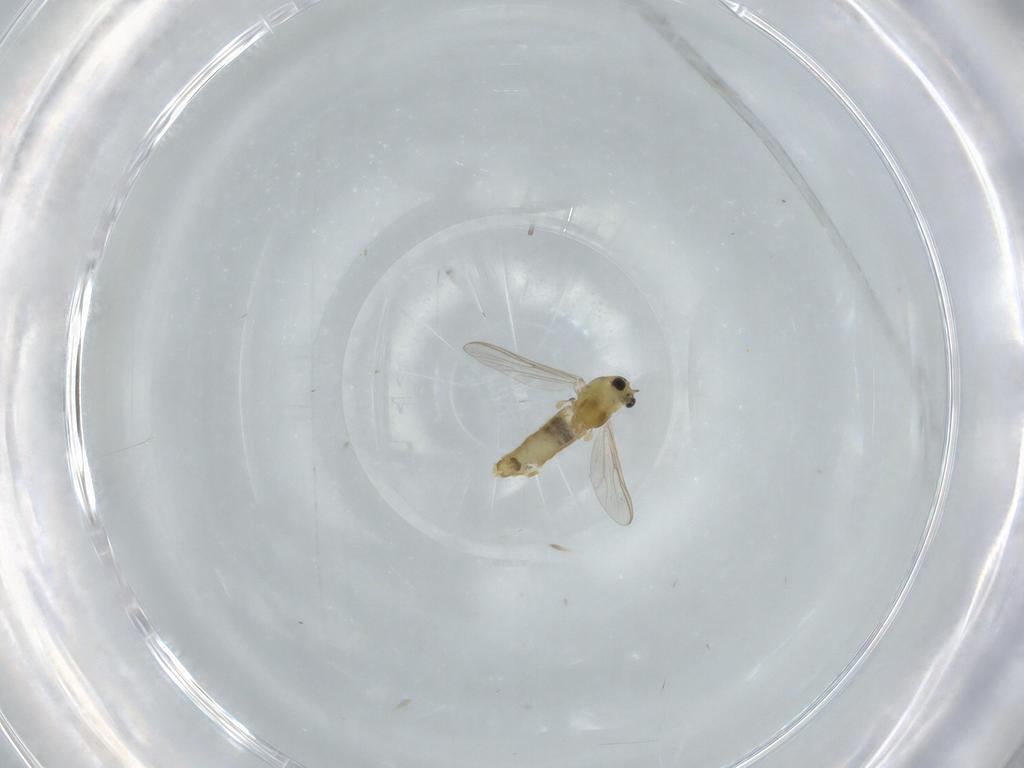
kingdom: Animalia
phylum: Arthropoda
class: Insecta
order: Diptera
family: Chironomidae
